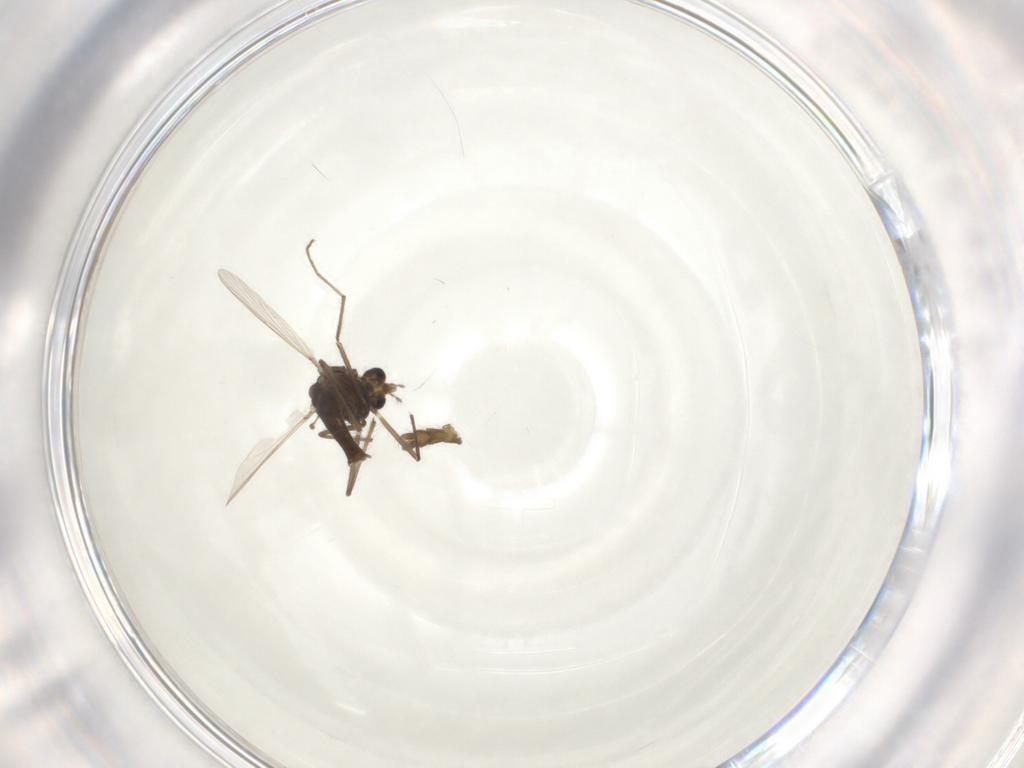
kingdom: Animalia
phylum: Arthropoda
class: Insecta
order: Diptera
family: Chironomidae
